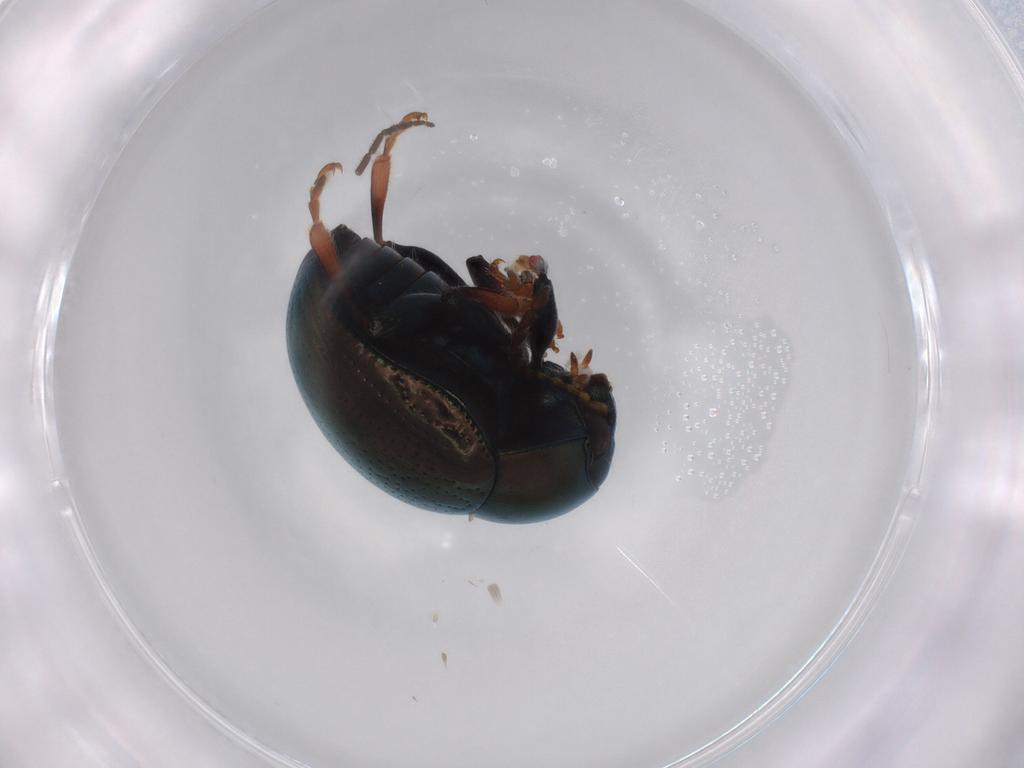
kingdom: Animalia
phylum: Arthropoda
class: Insecta
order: Coleoptera
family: Chrysomelidae
